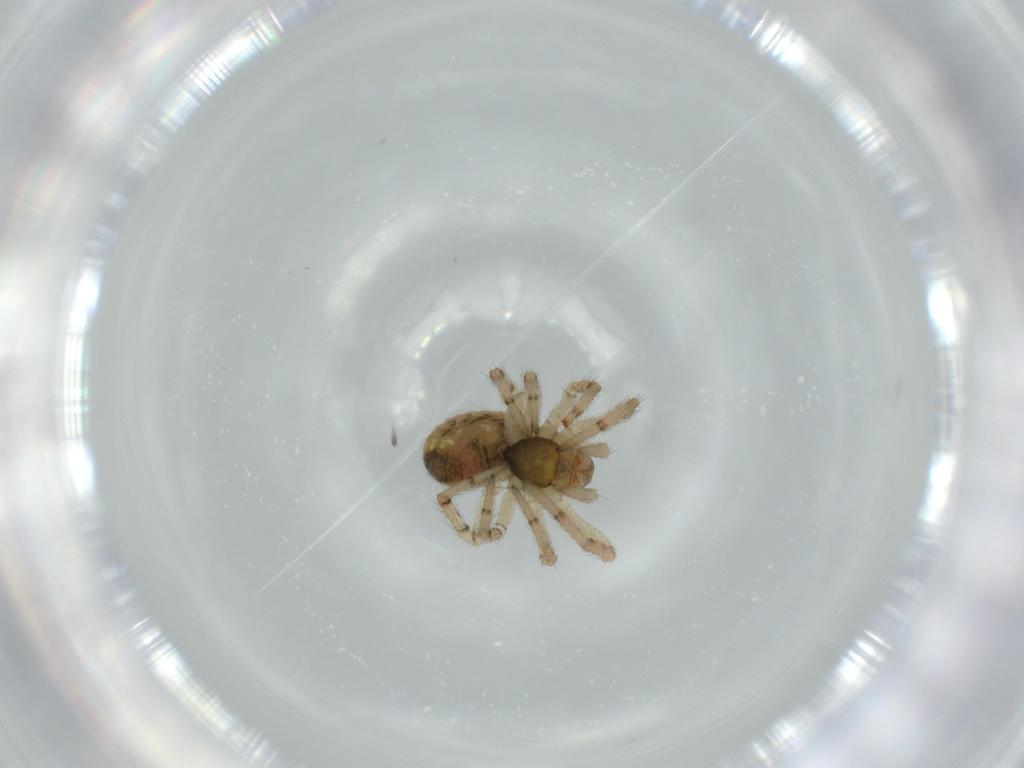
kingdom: Animalia
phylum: Arthropoda
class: Arachnida
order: Araneae
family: Theridiidae
